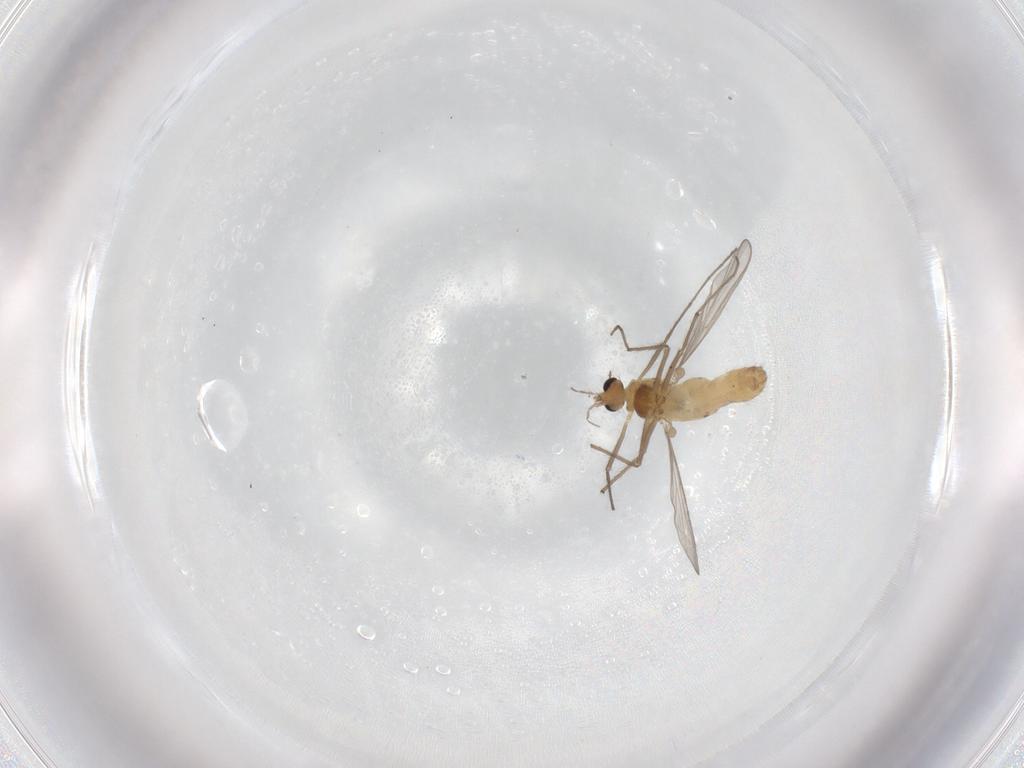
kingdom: Animalia
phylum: Arthropoda
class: Insecta
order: Diptera
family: Chironomidae
